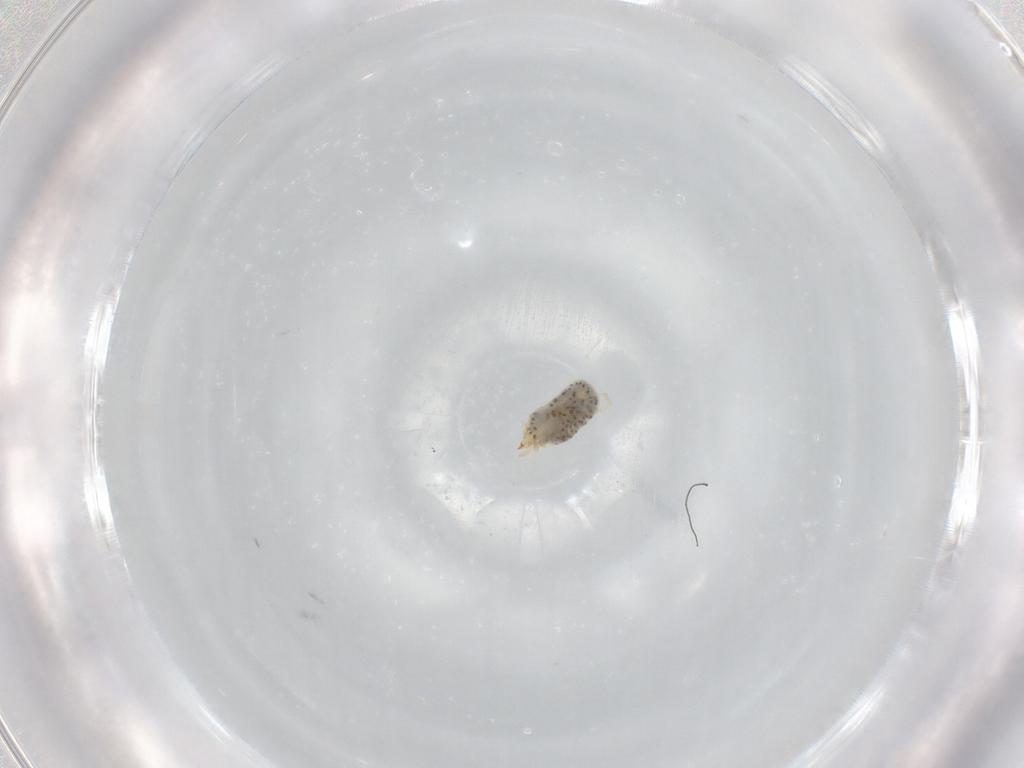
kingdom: Animalia
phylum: Arthropoda
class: Arachnida
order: Trombidiformes
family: Erythraeidae
